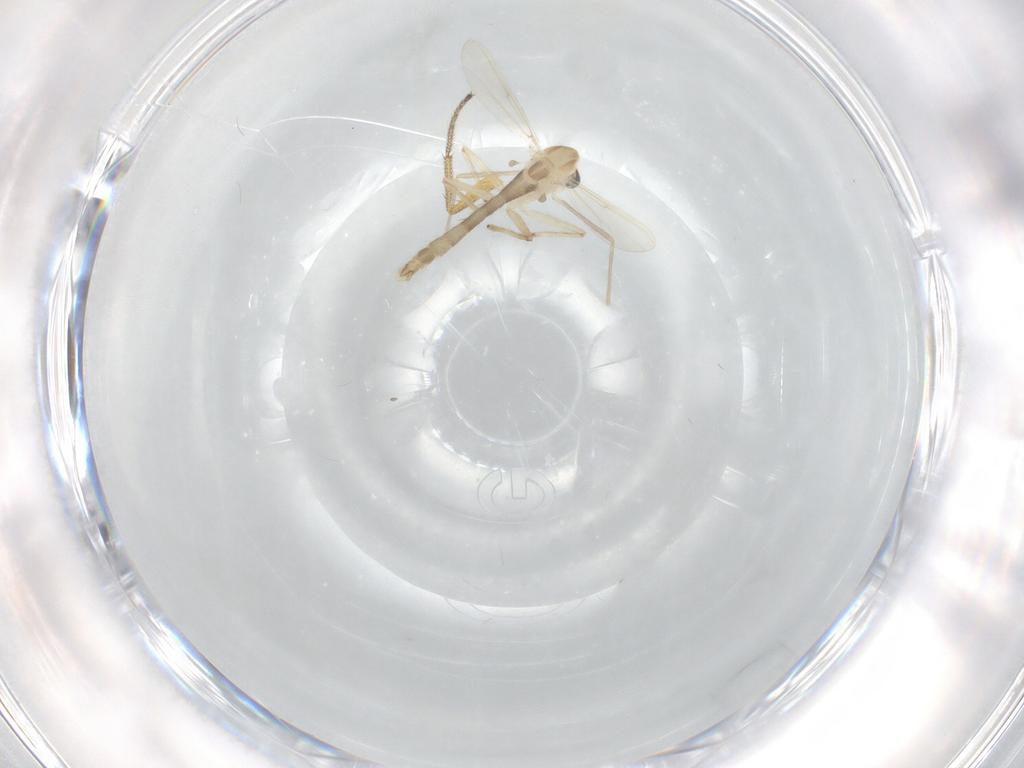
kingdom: Animalia
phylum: Arthropoda
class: Insecta
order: Diptera
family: Chironomidae
